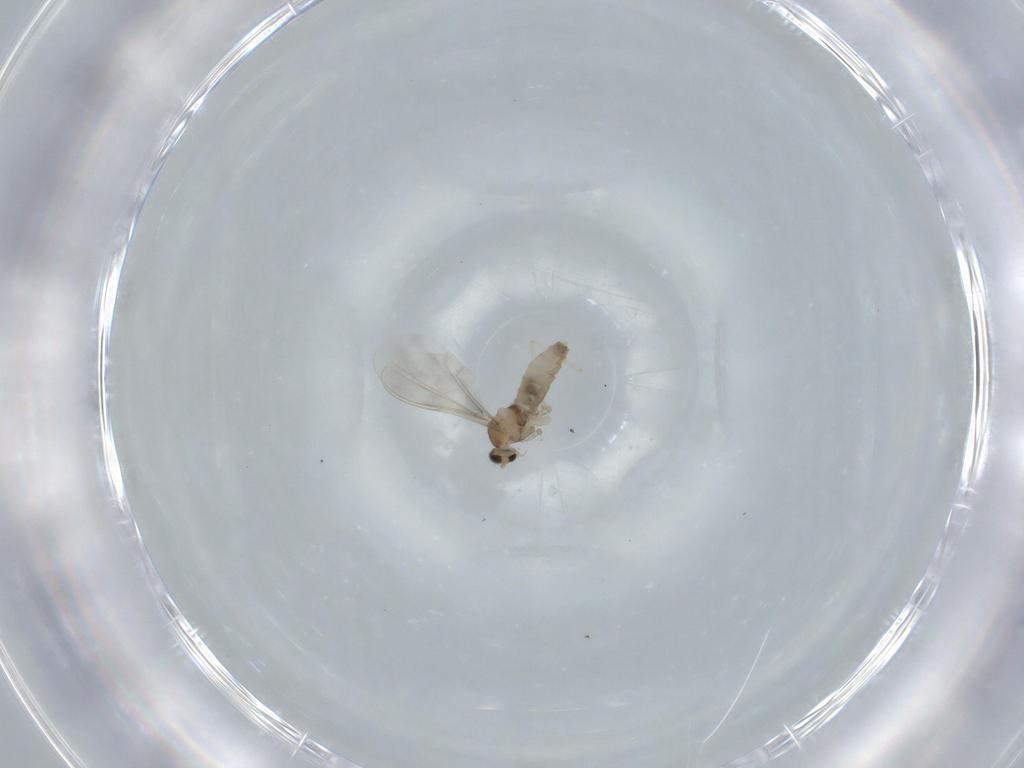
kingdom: Animalia
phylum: Arthropoda
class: Insecta
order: Diptera
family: Cecidomyiidae
